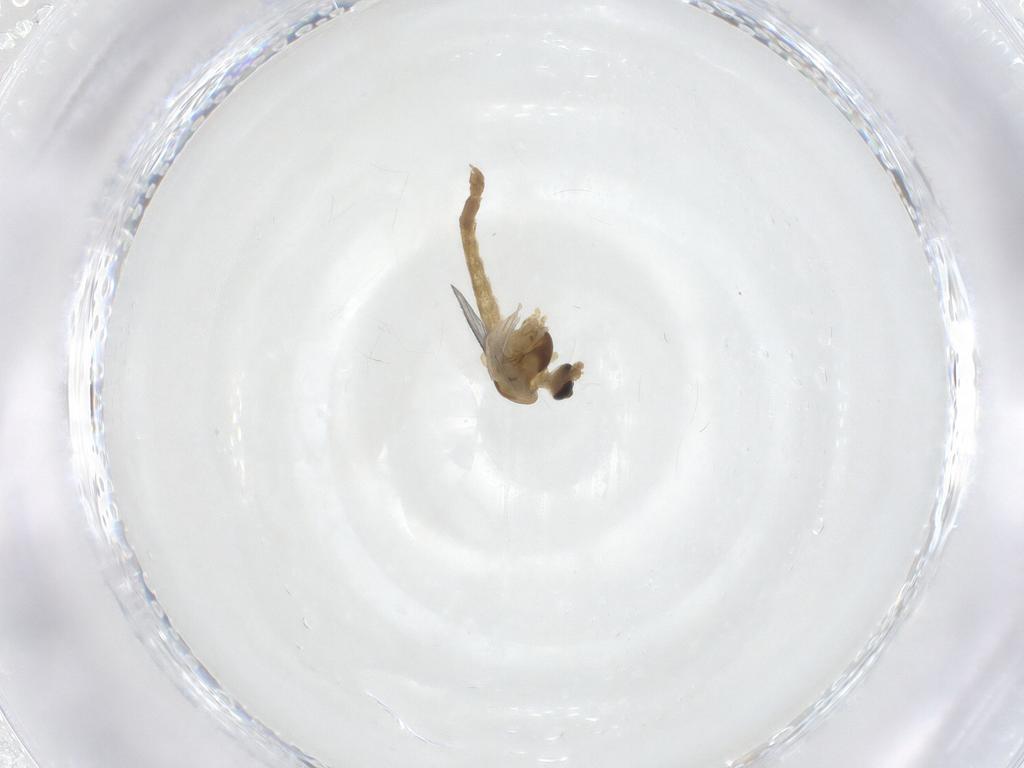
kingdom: Animalia
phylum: Arthropoda
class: Insecta
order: Diptera
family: Chironomidae
